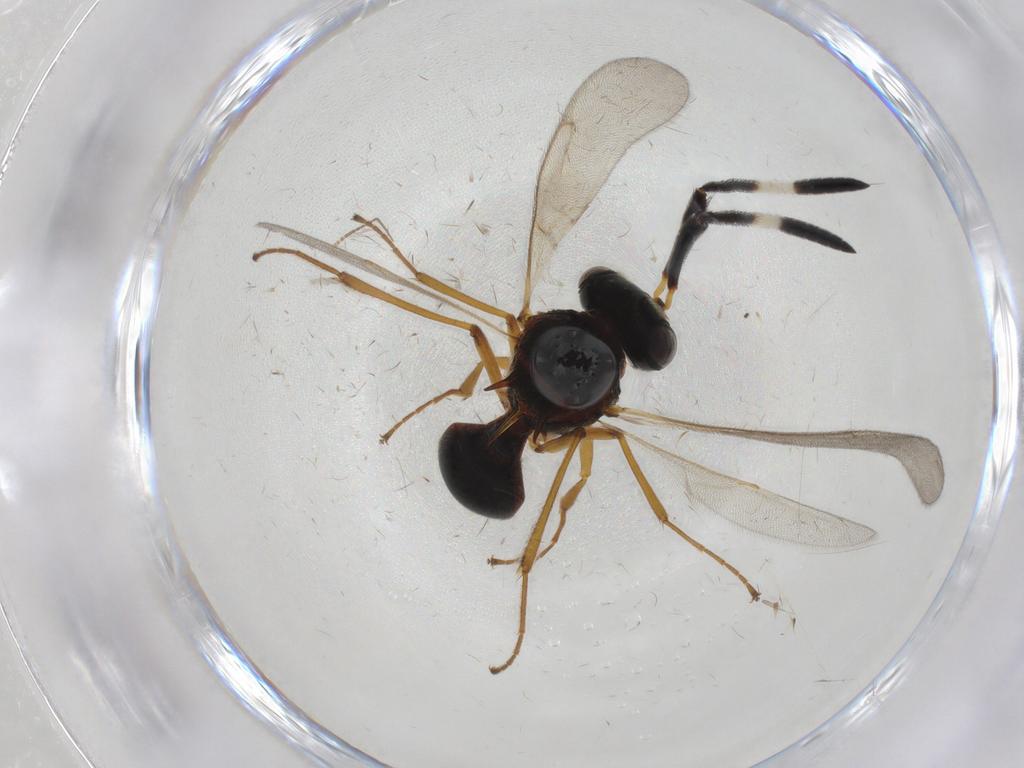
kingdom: Animalia
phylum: Arthropoda
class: Insecta
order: Hymenoptera
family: Scelionidae
